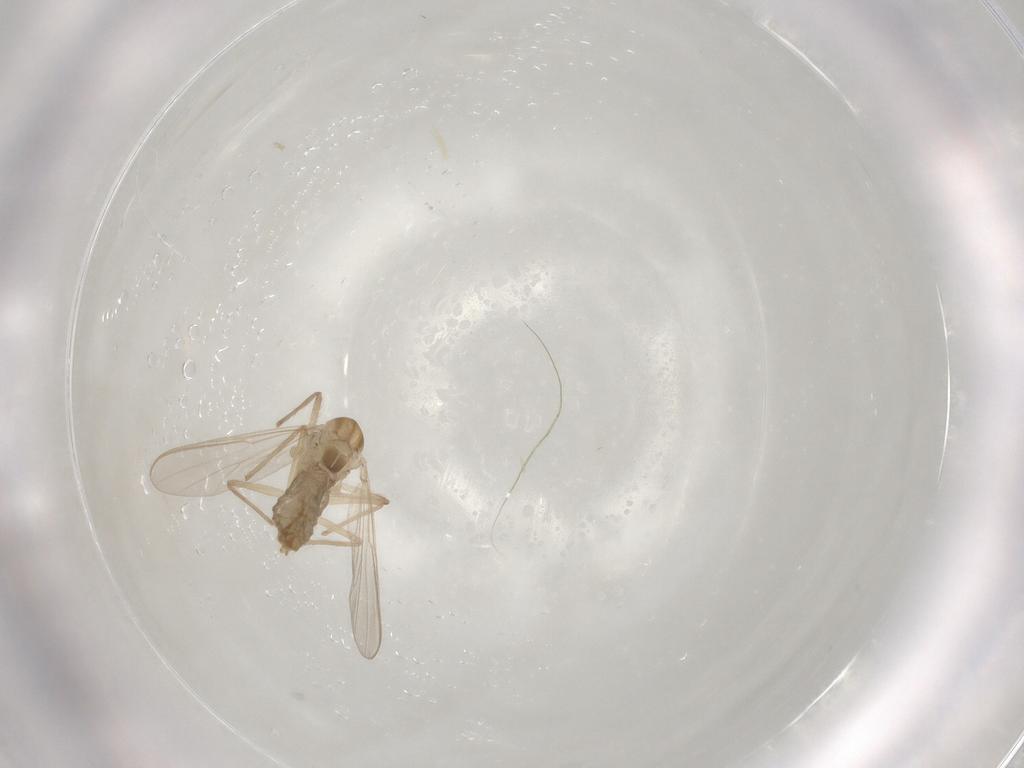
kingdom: Animalia
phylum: Arthropoda
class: Insecta
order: Diptera
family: Chironomidae
